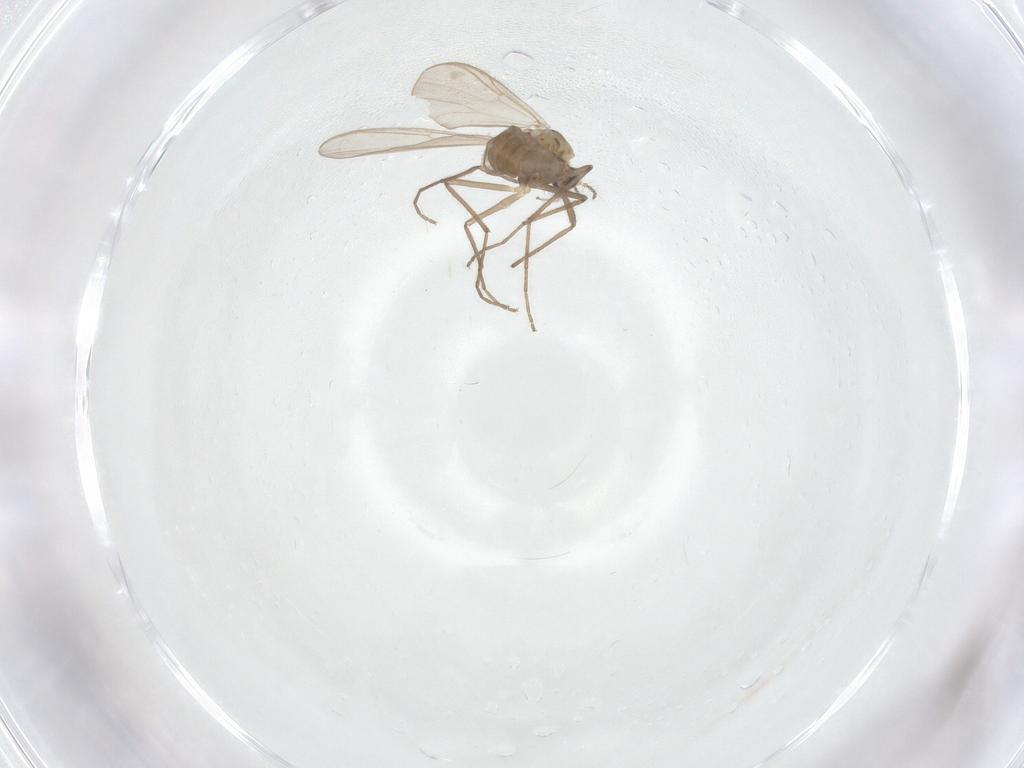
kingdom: Animalia
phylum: Arthropoda
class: Insecta
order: Diptera
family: Chironomidae
